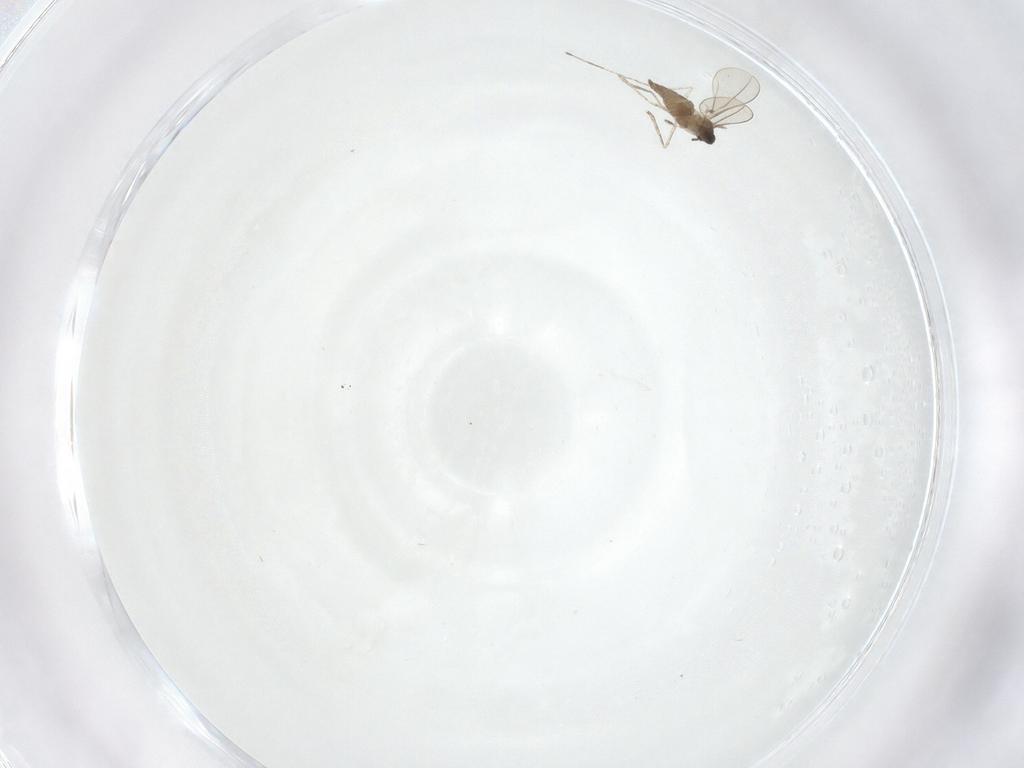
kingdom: Animalia
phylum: Arthropoda
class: Insecta
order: Diptera
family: Cecidomyiidae
